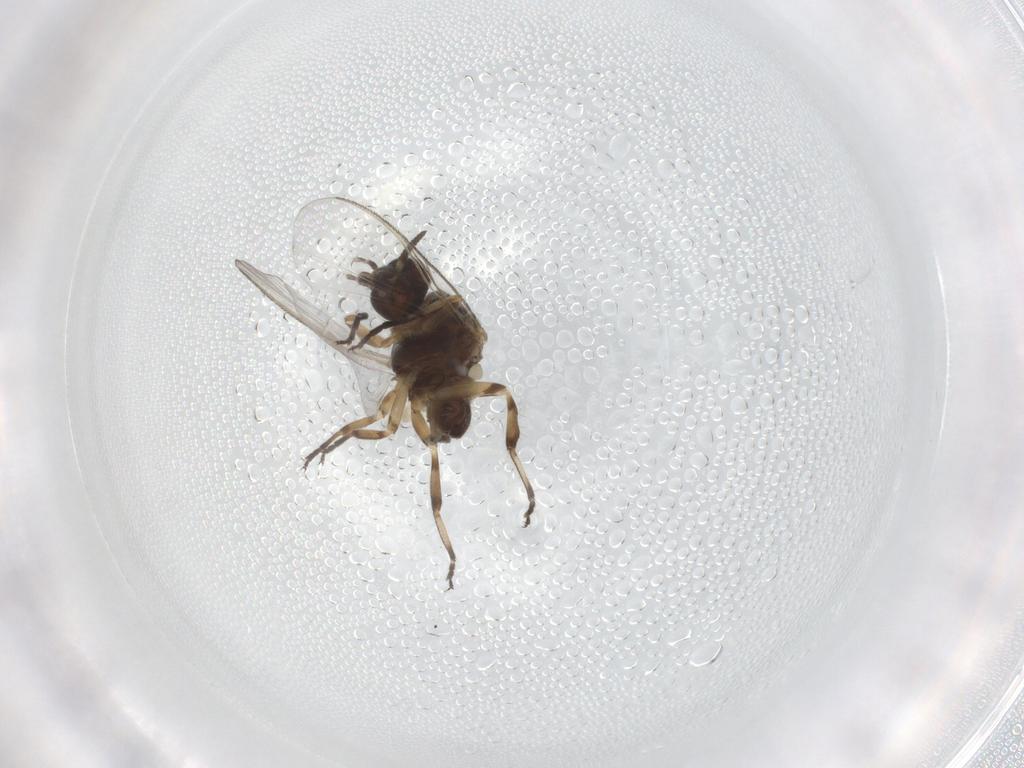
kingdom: Animalia
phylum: Arthropoda
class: Insecta
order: Diptera
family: Simuliidae
